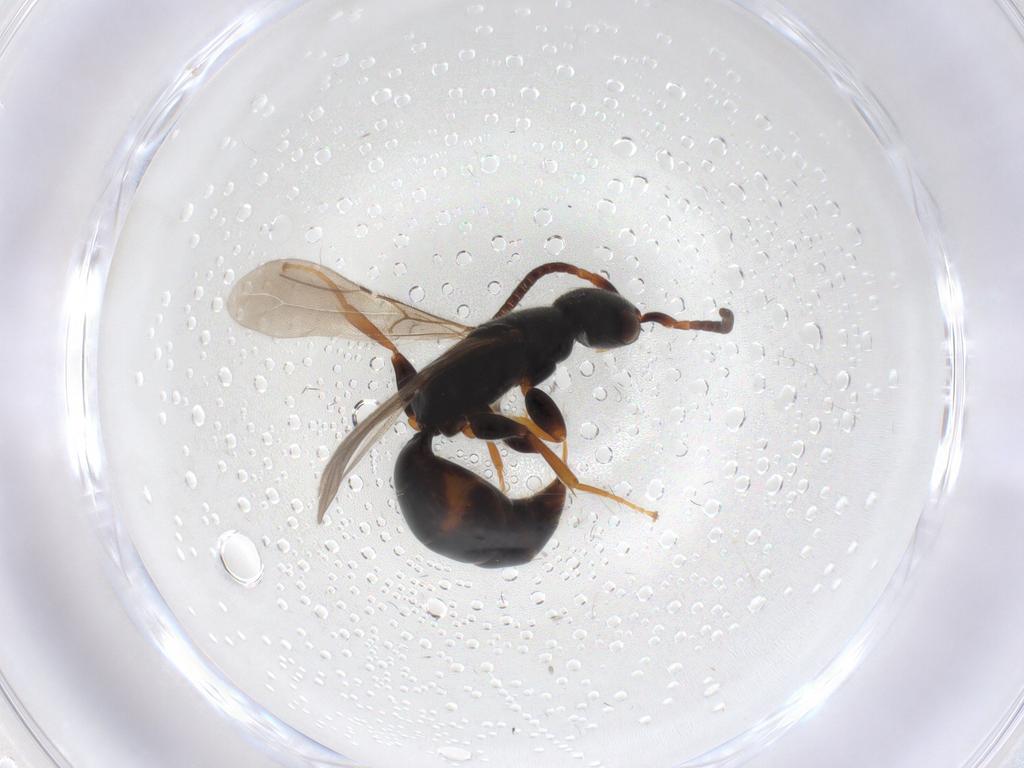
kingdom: Animalia
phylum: Arthropoda
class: Insecta
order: Hymenoptera
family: Bethylidae
